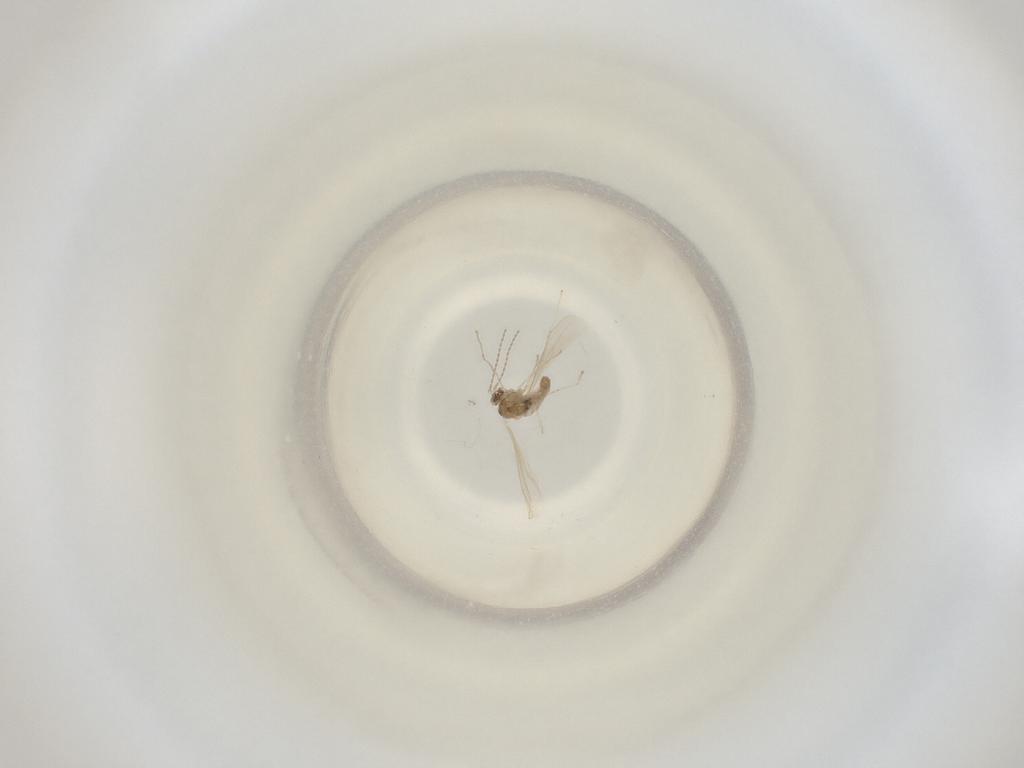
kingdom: Animalia
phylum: Arthropoda
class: Insecta
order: Diptera
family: Cecidomyiidae
